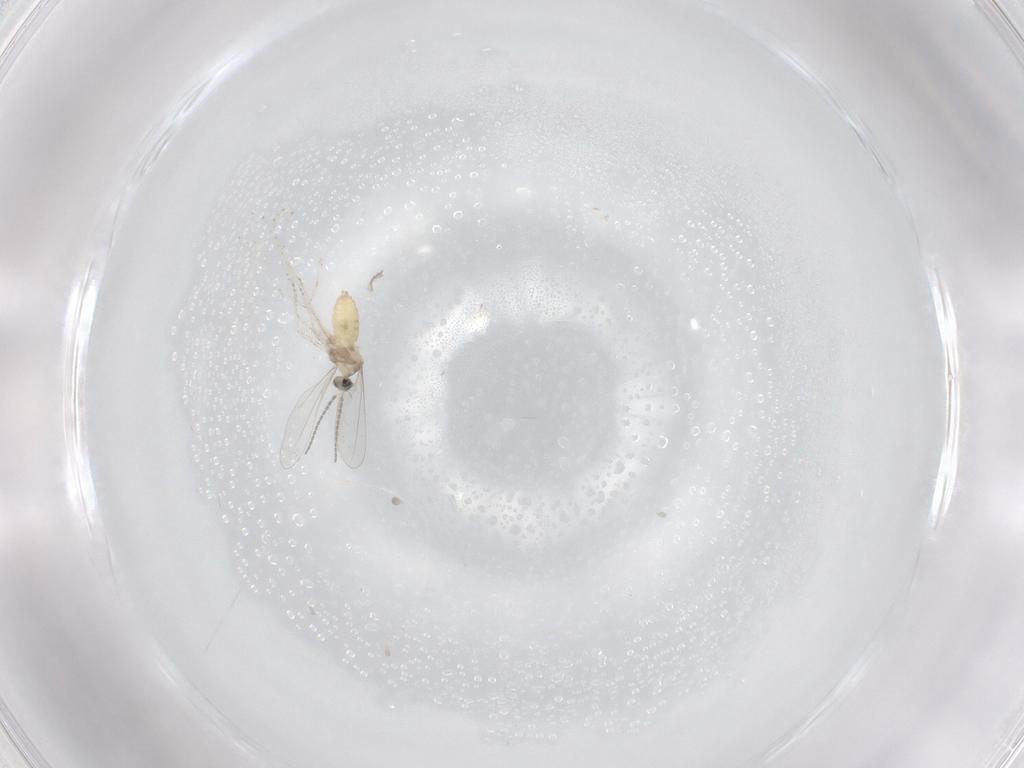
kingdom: Animalia
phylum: Arthropoda
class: Insecta
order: Diptera
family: Cecidomyiidae
